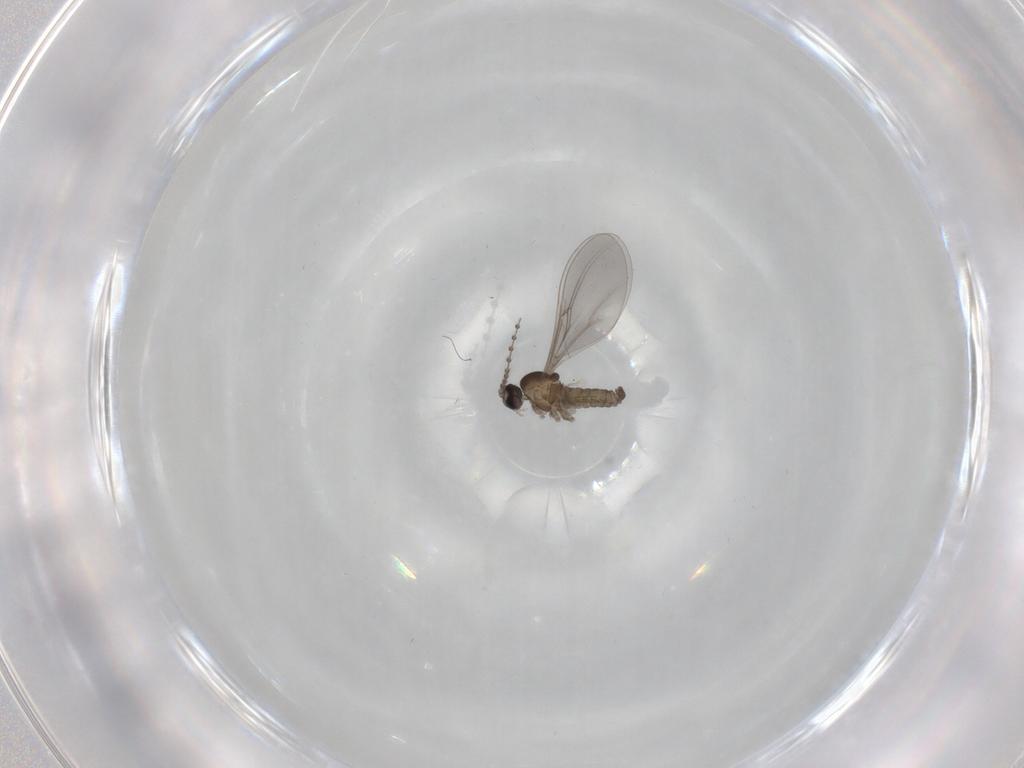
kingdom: Animalia
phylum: Arthropoda
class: Insecta
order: Diptera
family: Cecidomyiidae
